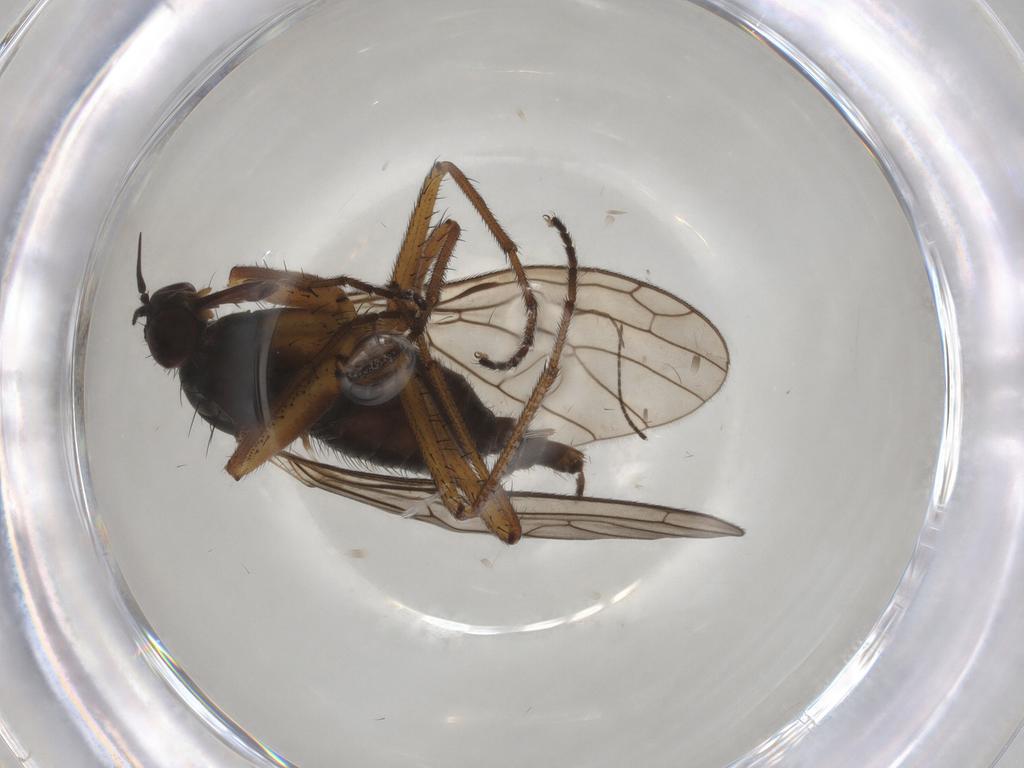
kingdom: Animalia
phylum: Arthropoda
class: Insecta
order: Diptera
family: Empididae
